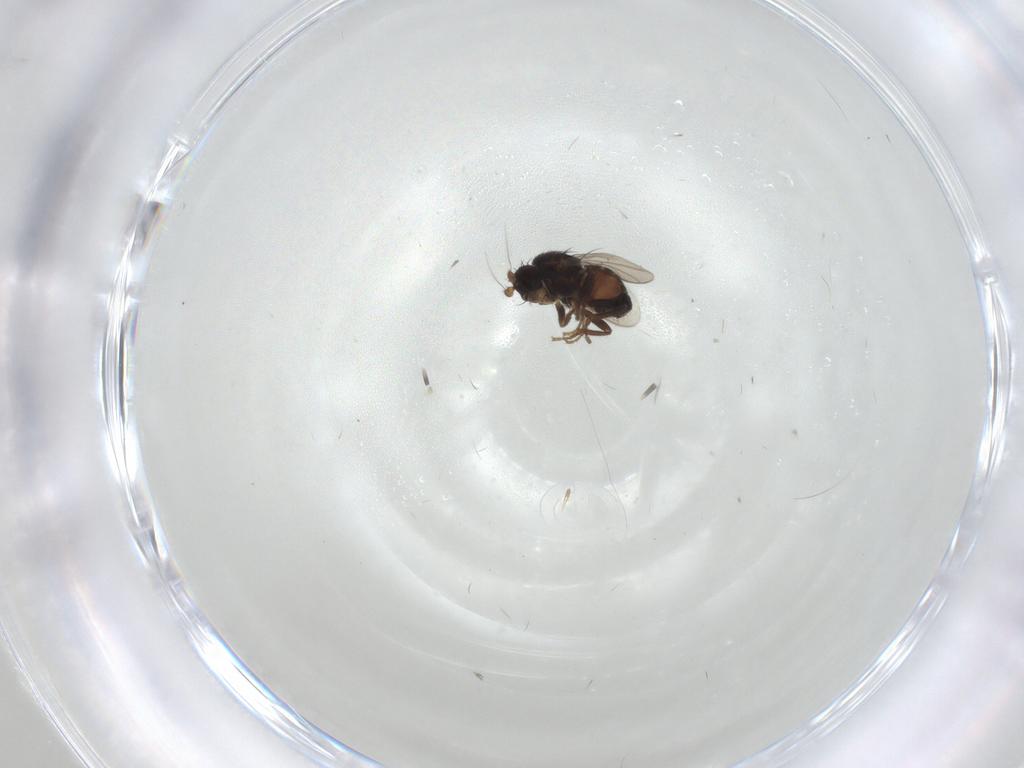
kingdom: Animalia
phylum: Arthropoda
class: Insecta
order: Diptera
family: Sphaeroceridae
